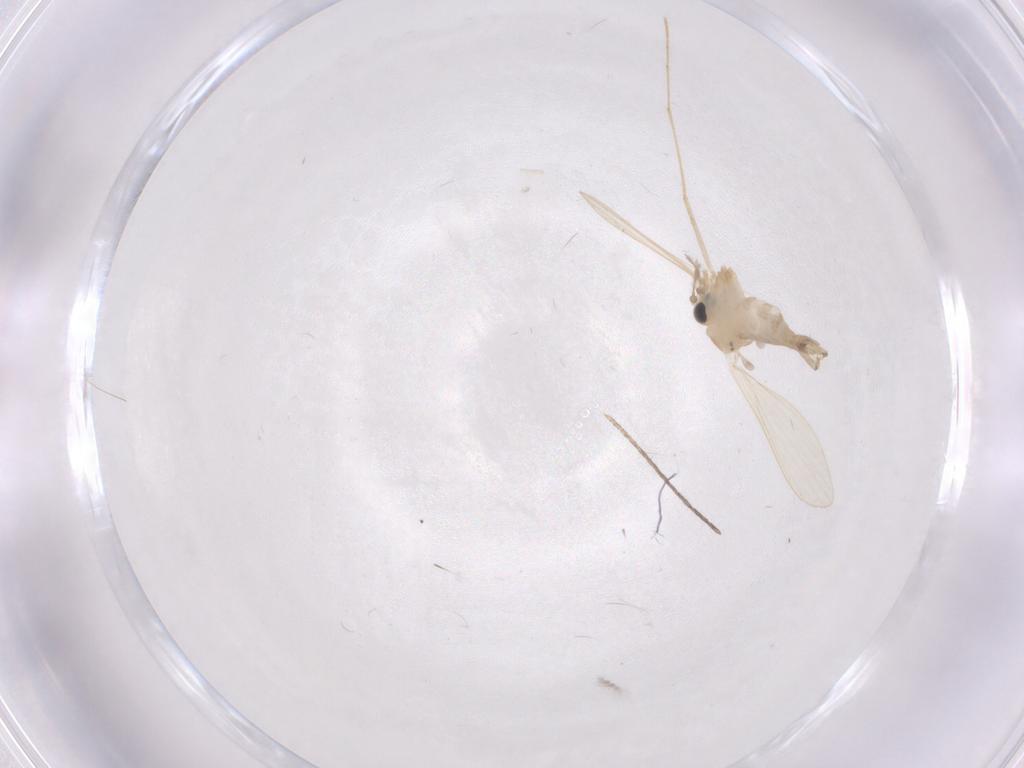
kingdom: Animalia
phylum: Arthropoda
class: Insecta
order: Diptera
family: Psychodidae
